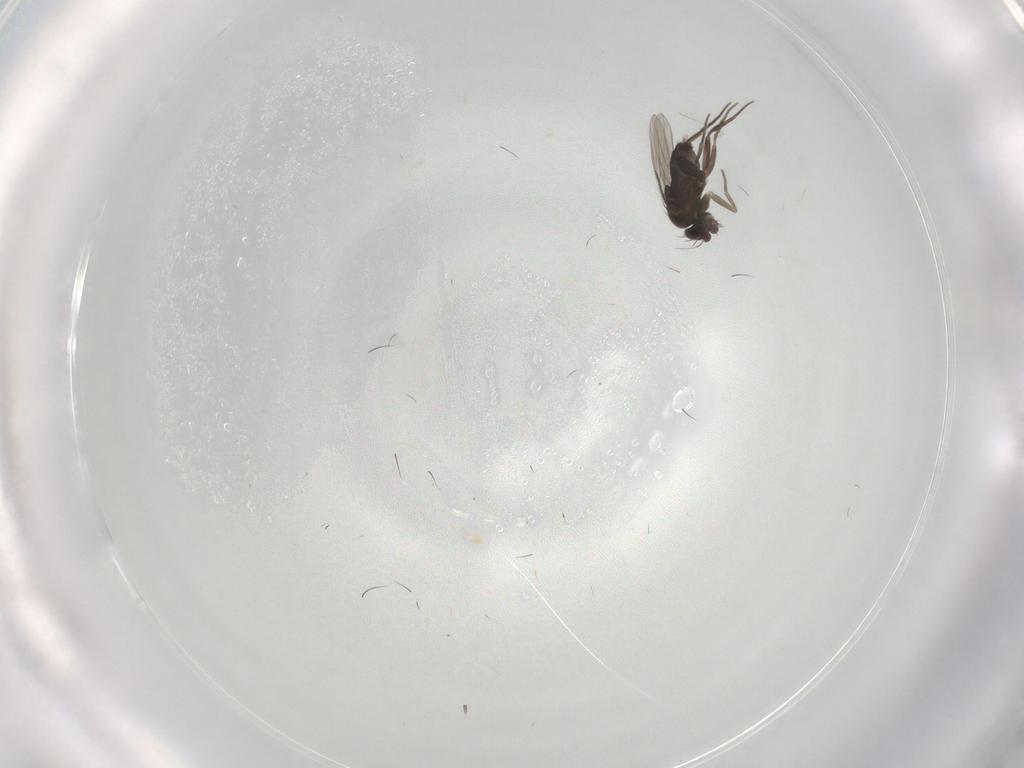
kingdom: Animalia
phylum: Arthropoda
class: Insecta
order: Diptera
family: Phoridae
